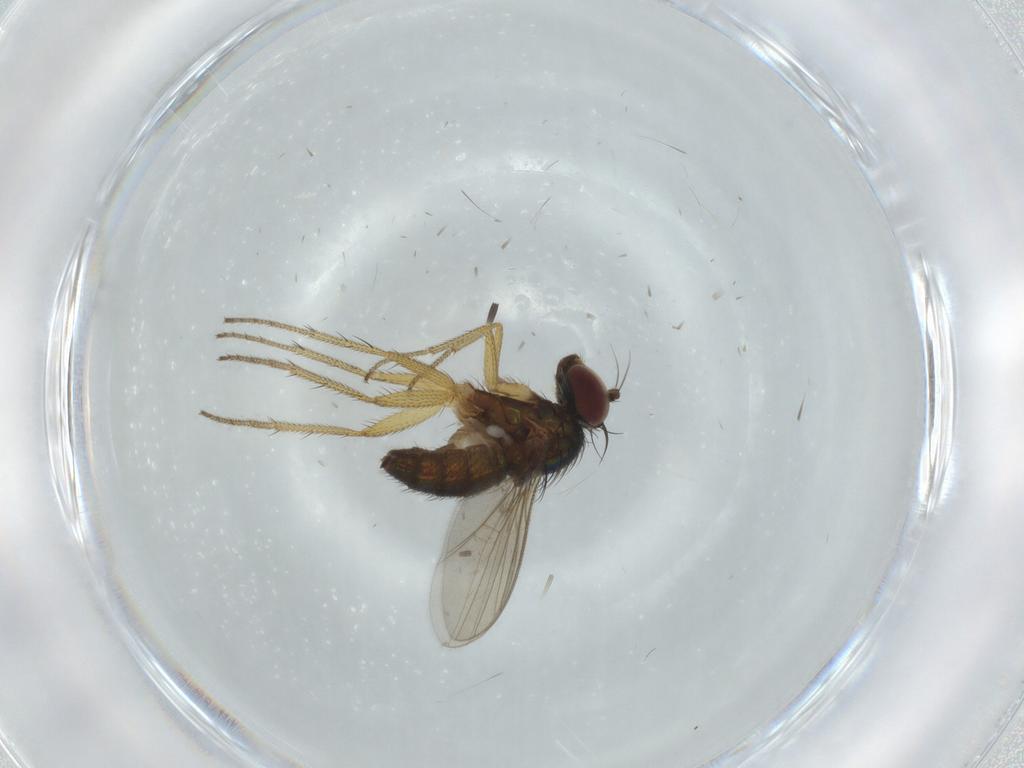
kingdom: Animalia
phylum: Arthropoda
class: Insecta
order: Diptera
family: Dolichopodidae
